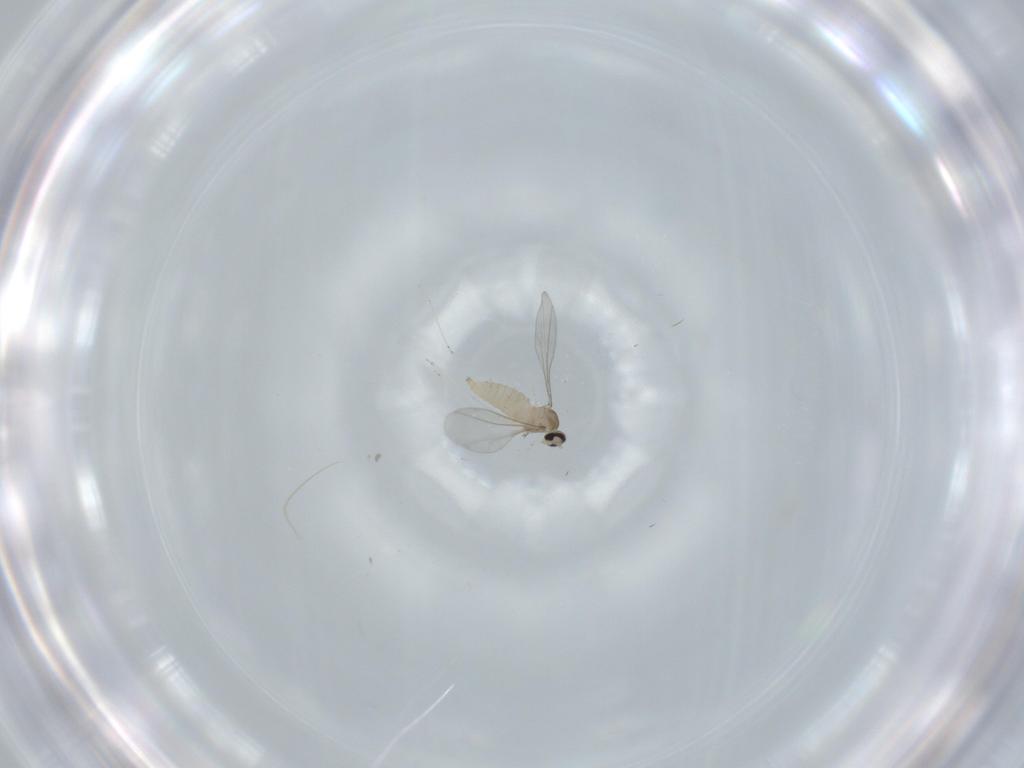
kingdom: Animalia
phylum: Arthropoda
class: Insecta
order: Diptera
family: Cecidomyiidae
